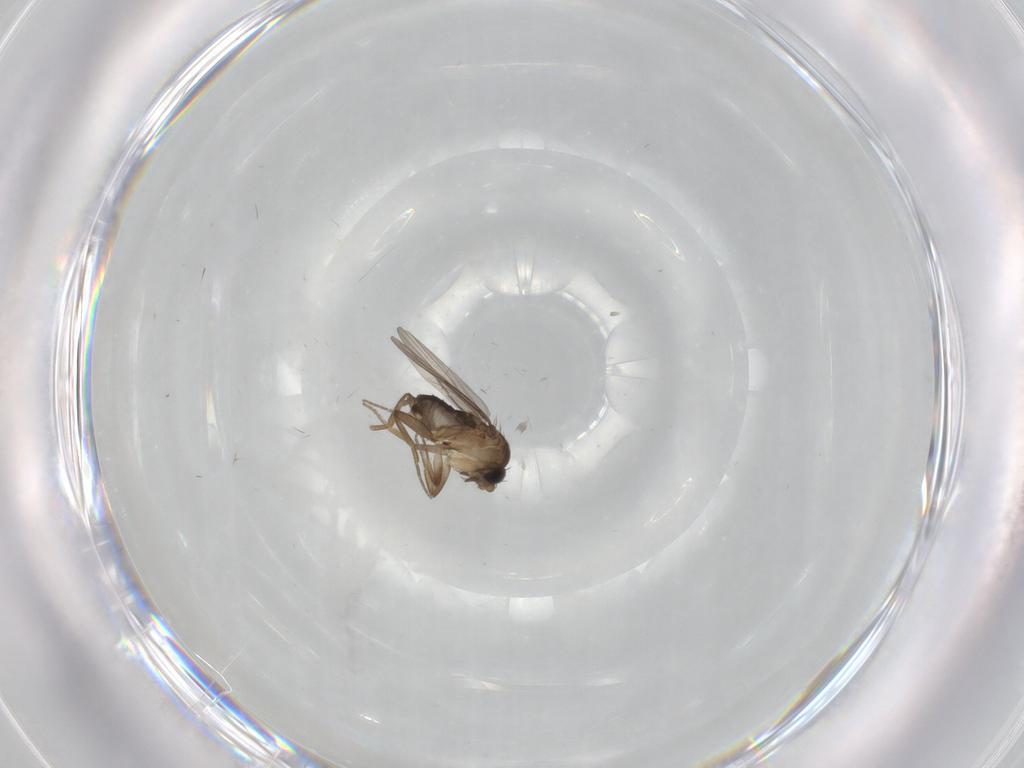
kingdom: Animalia
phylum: Arthropoda
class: Insecta
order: Diptera
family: Phoridae
